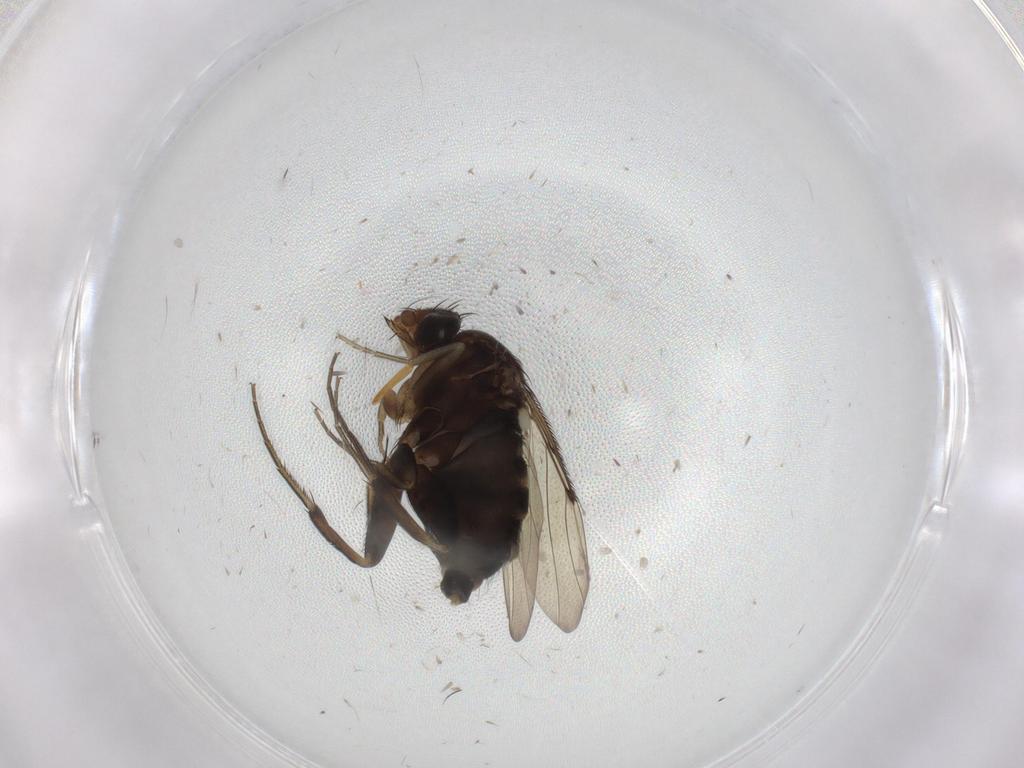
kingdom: Animalia
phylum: Arthropoda
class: Insecta
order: Diptera
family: Phoridae
